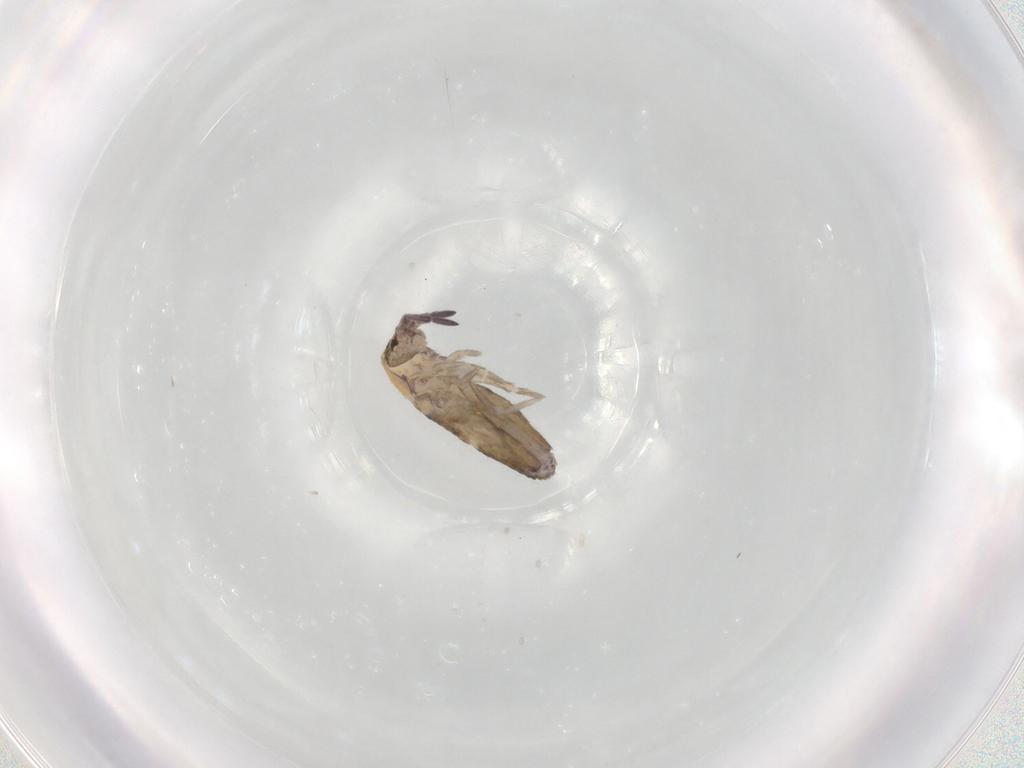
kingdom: Animalia
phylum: Arthropoda
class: Collembola
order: Entomobryomorpha
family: Entomobryidae
